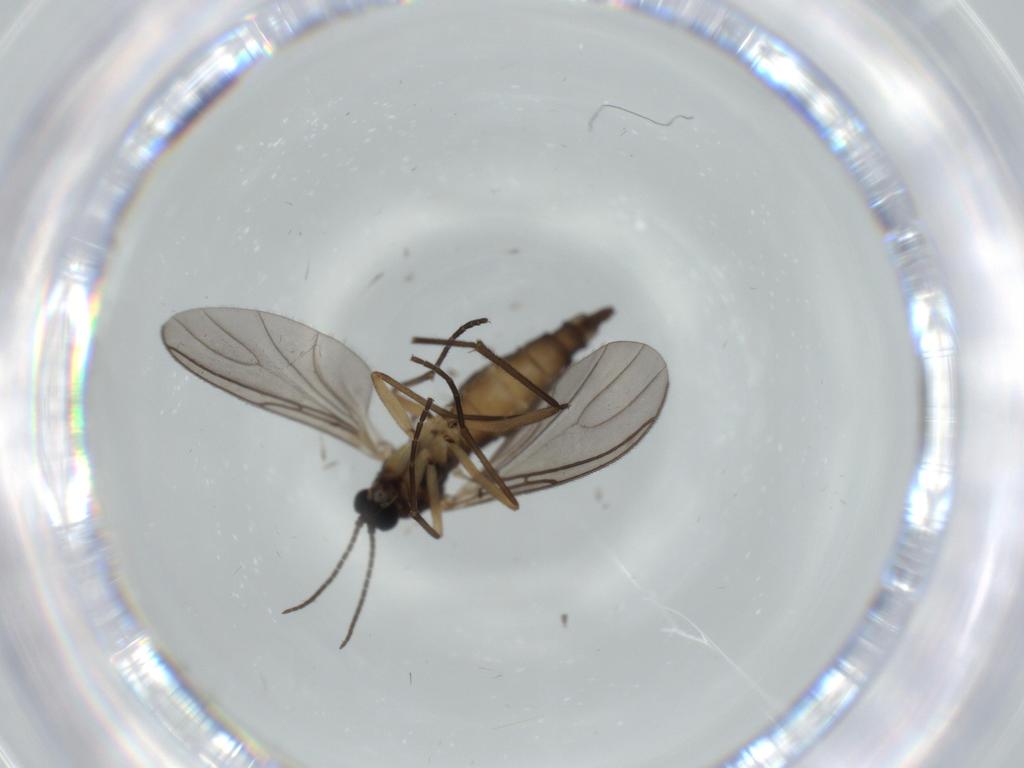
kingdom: Animalia
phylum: Arthropoda
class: Insecta
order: Diptera
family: Sciaridae
